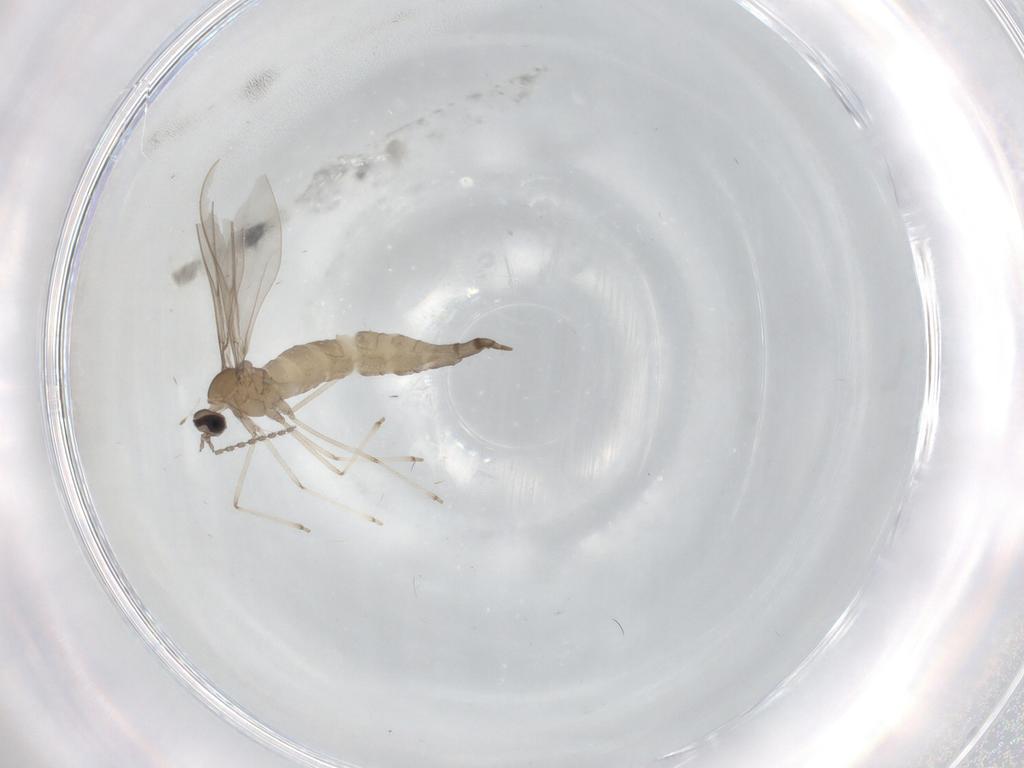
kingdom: Animalia
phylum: Arthropoda
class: Insecta
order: Diptera
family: Cecidomyiidae
